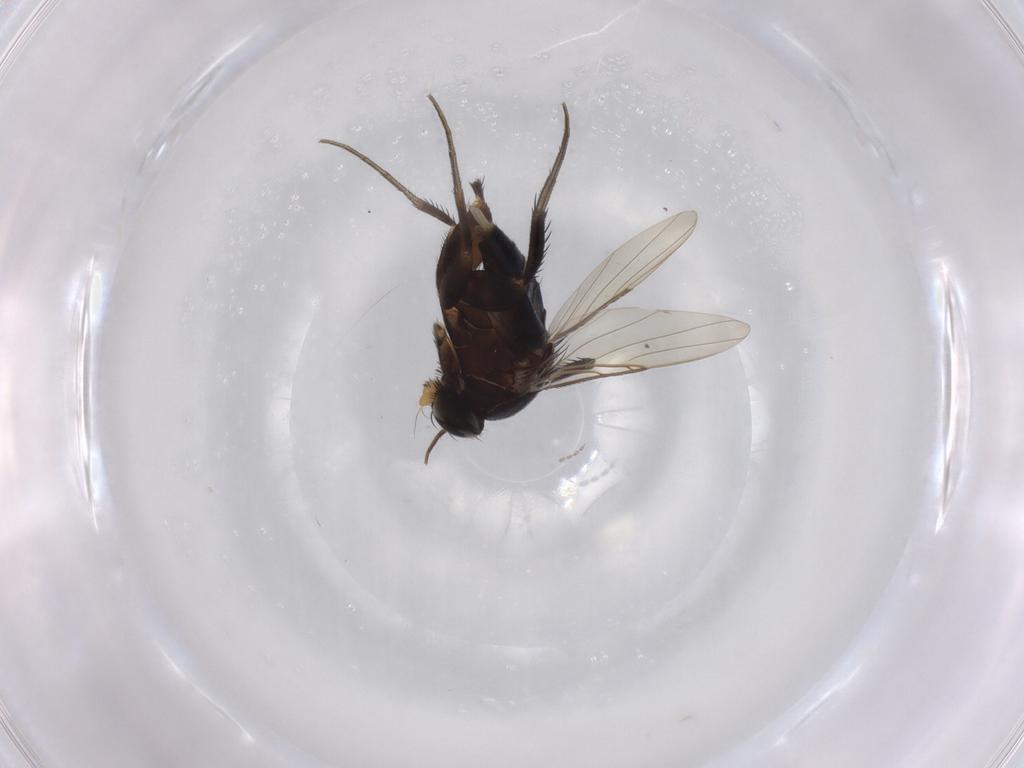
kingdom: Animalia
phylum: Arthropoda
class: Insecta
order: Diptera
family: Phoridae
